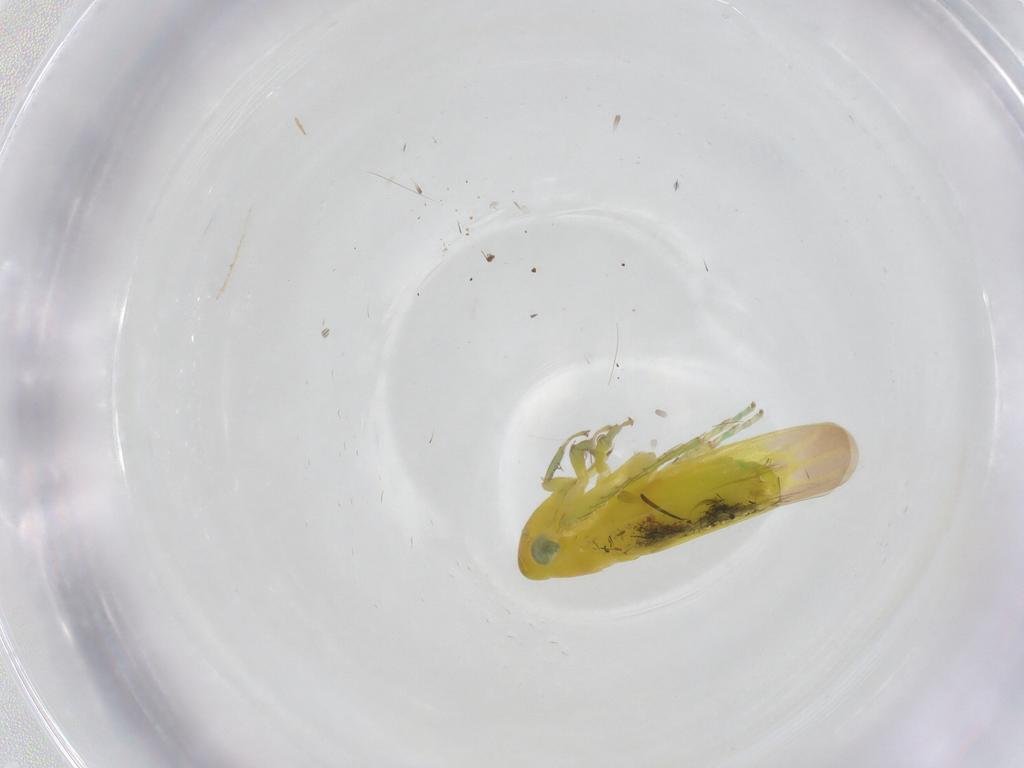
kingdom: Animalia
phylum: Arthropoda
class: Insecta
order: Hemiptera
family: Cicadellidae
